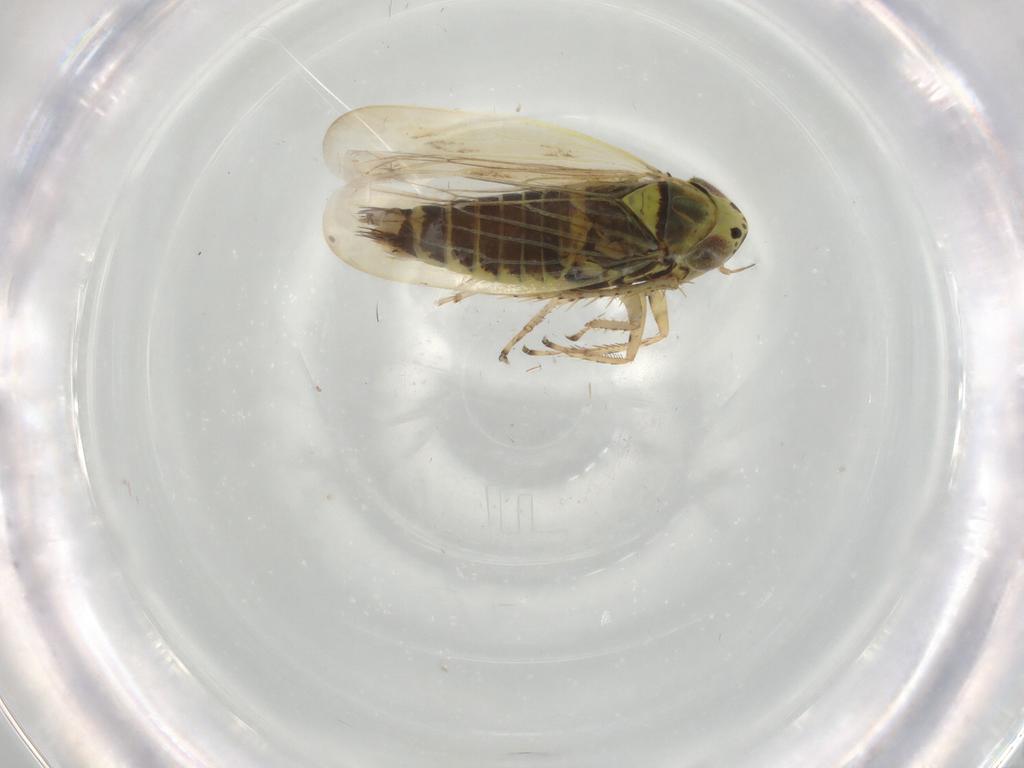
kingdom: Animalia
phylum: Arthropoda
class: Insecta
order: Hemiptera
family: Cicadellidae
